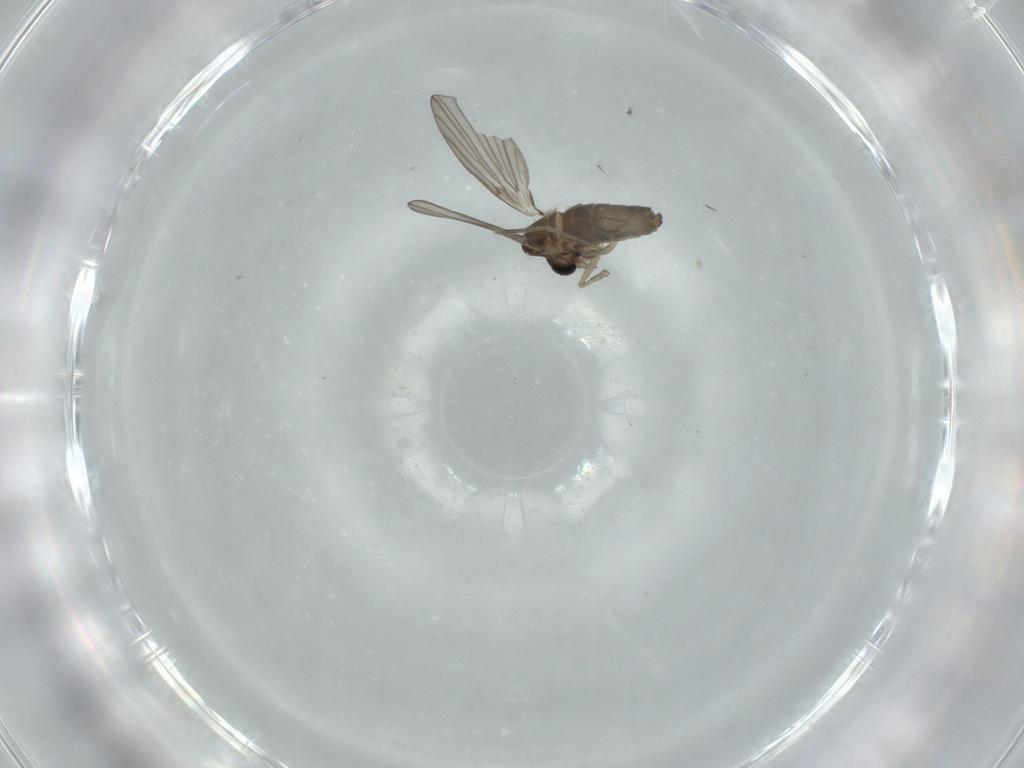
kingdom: Animalia
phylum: Arthropoda
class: Insecta
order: Diptera
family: Psychodidae
